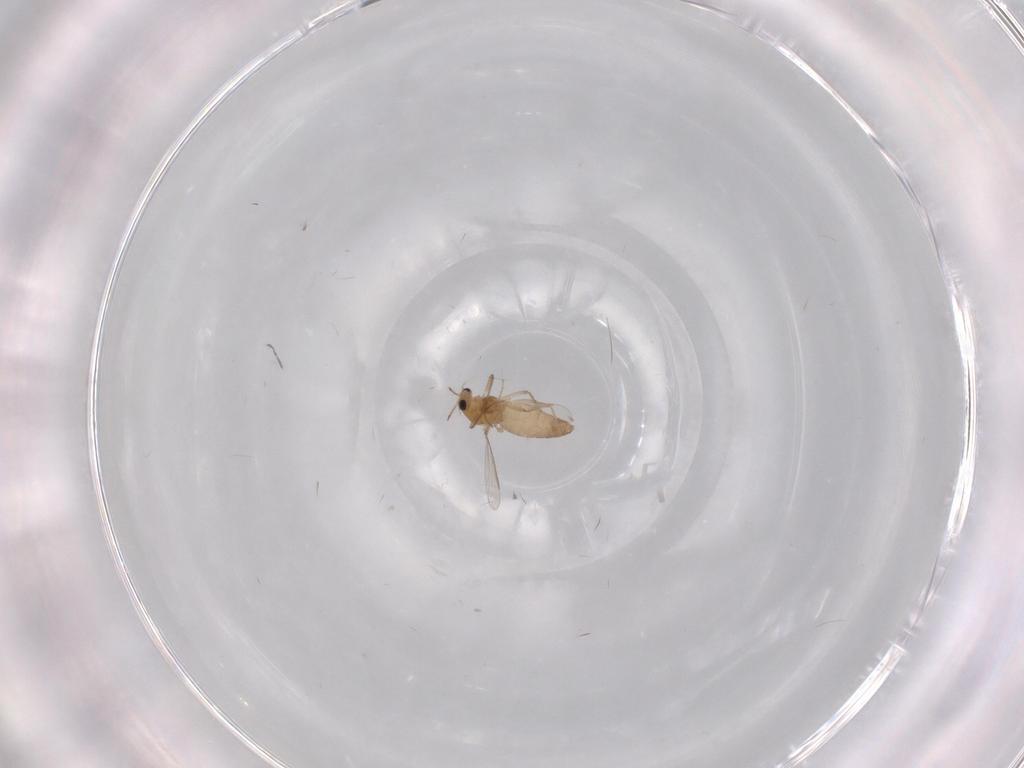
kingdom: Animalia
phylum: Arthropoda
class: Insecta
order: Diptera
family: Chironomidae
